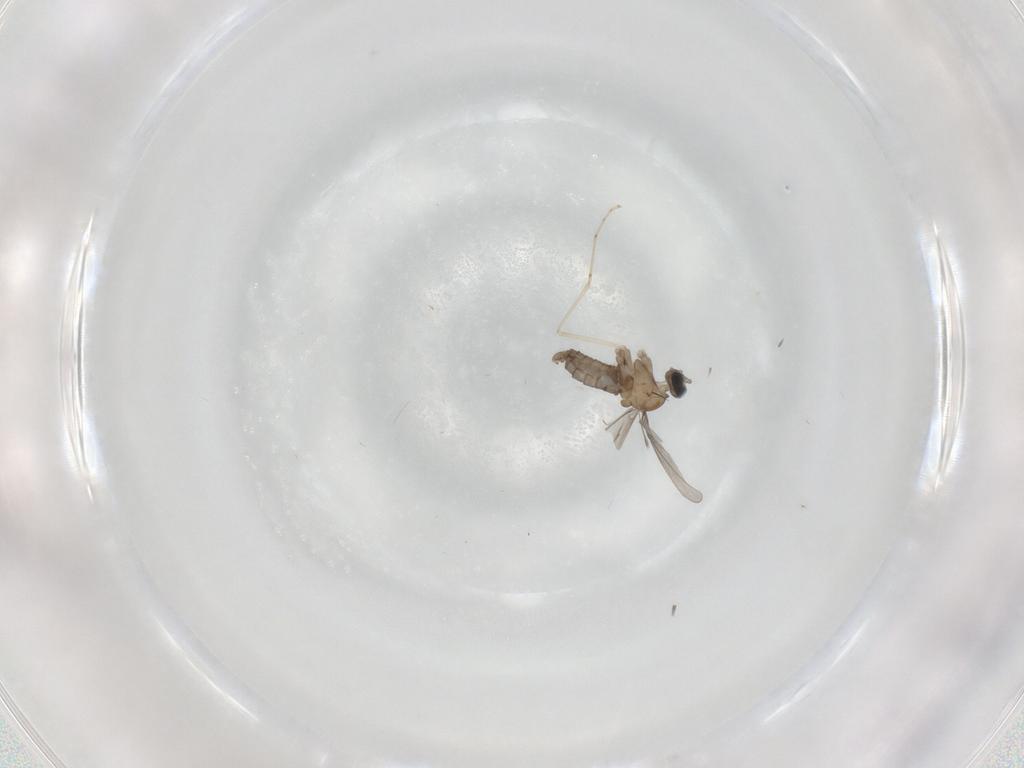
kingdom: Animalia
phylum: Arthropoda
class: Insecta
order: Diptera
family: Limoniidae
